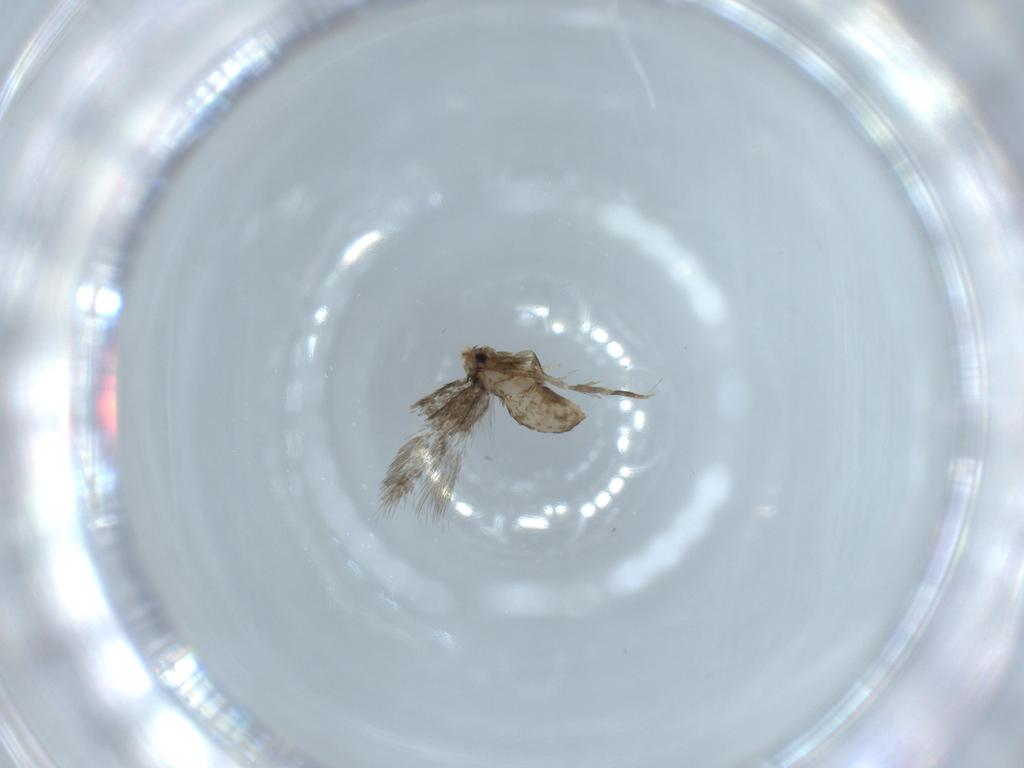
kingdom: Animalia
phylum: Arthropoda
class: Insecta
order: Lepidoptera
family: Nepticulidae
